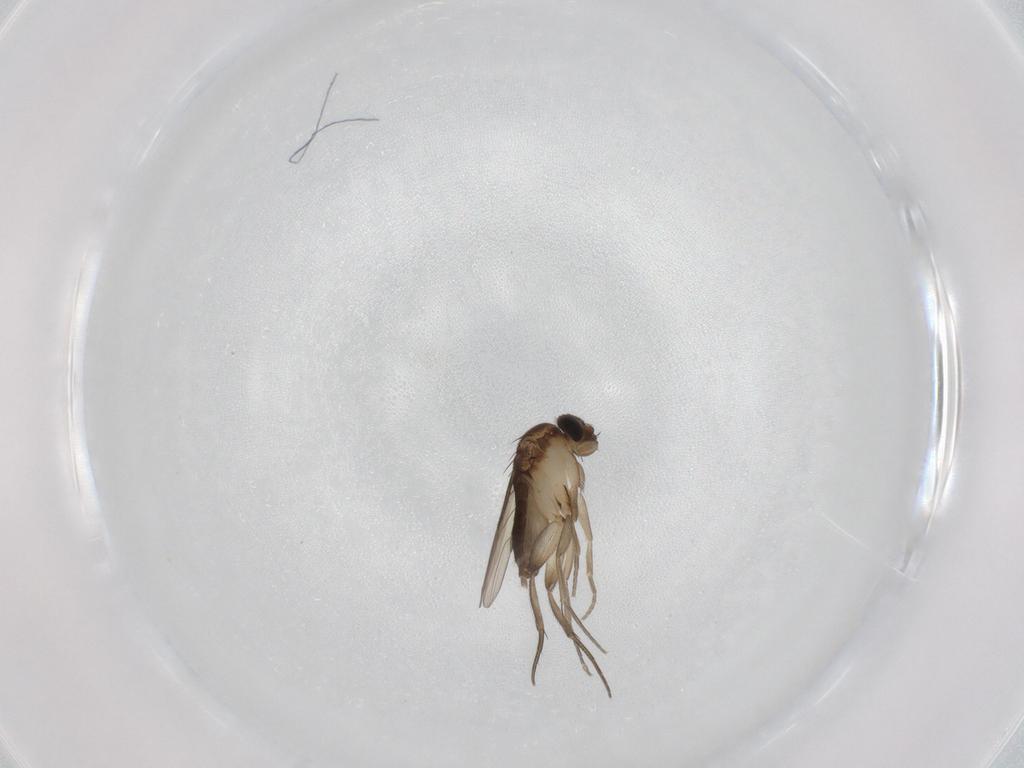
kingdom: Animalia
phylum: Arthropoda
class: Insecta
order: Diptera
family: Phoridae
